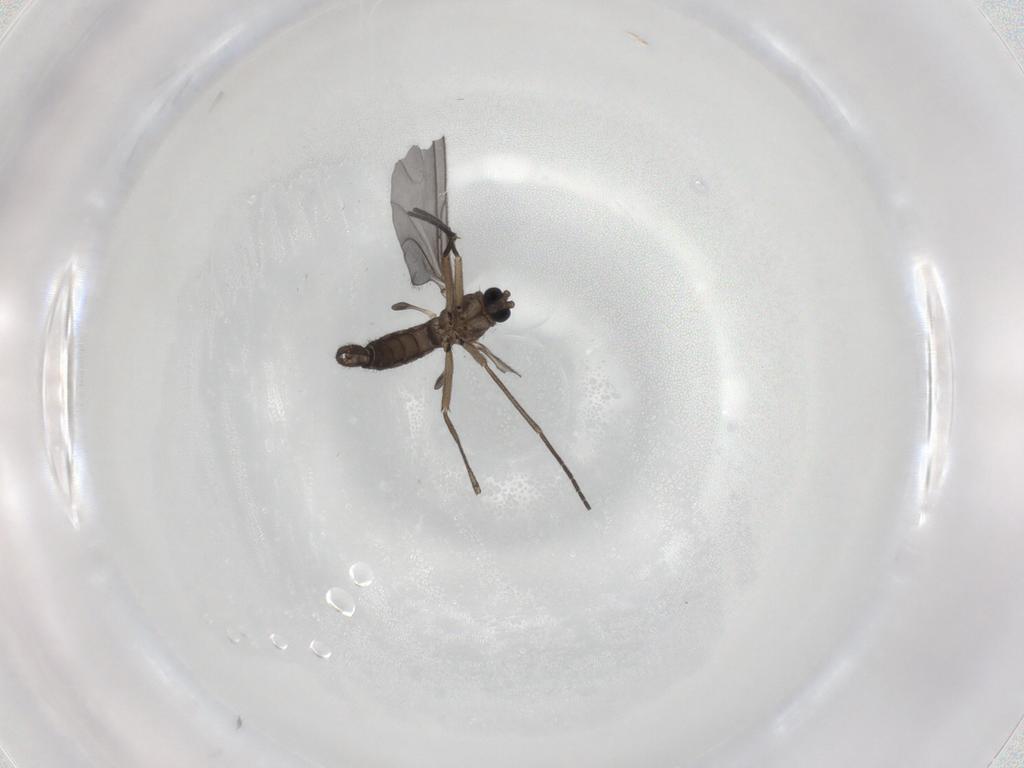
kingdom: Animalia
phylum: Arthropoda
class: Insecta
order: Diptera
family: Sciaridae
